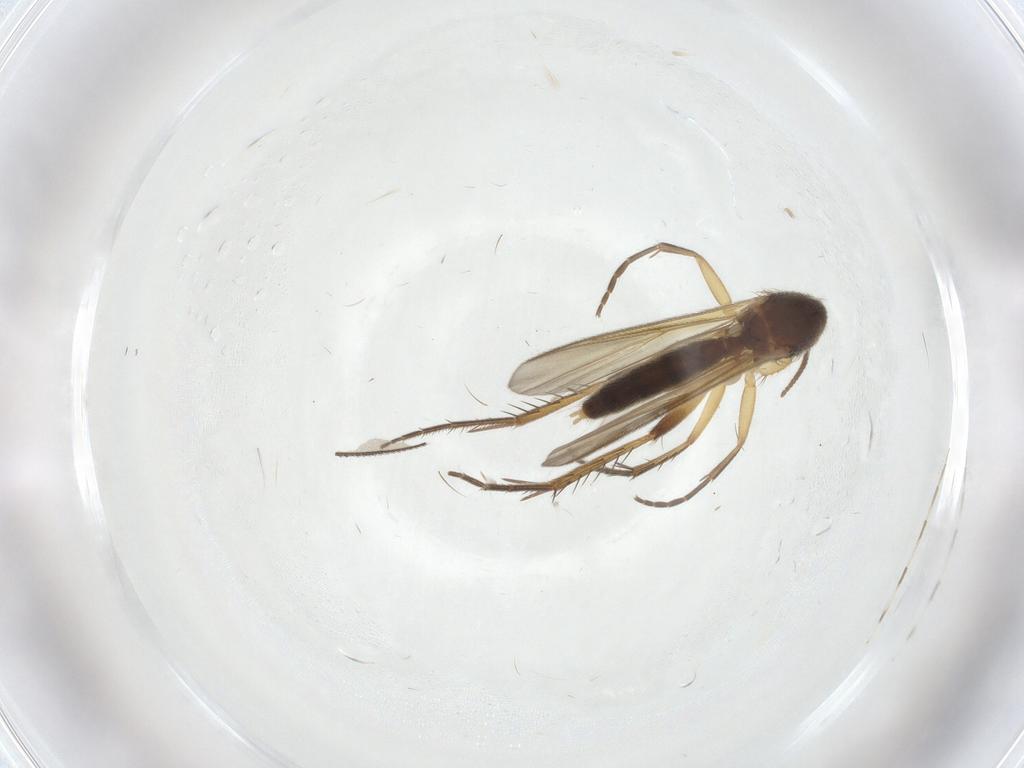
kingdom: Animalia
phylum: Arthropoda
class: Insecta
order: Diptera
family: Mycetophilidae
